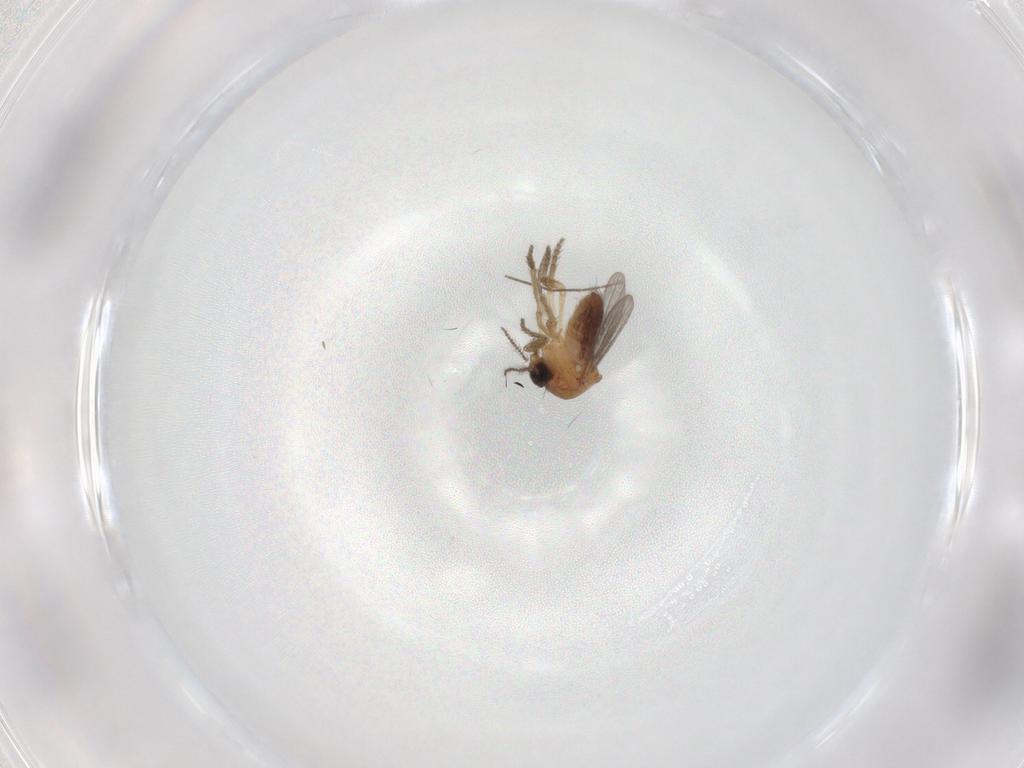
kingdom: Animalia
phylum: Arthropoda
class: Insecta
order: Diptera
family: Ceratopogonidae
